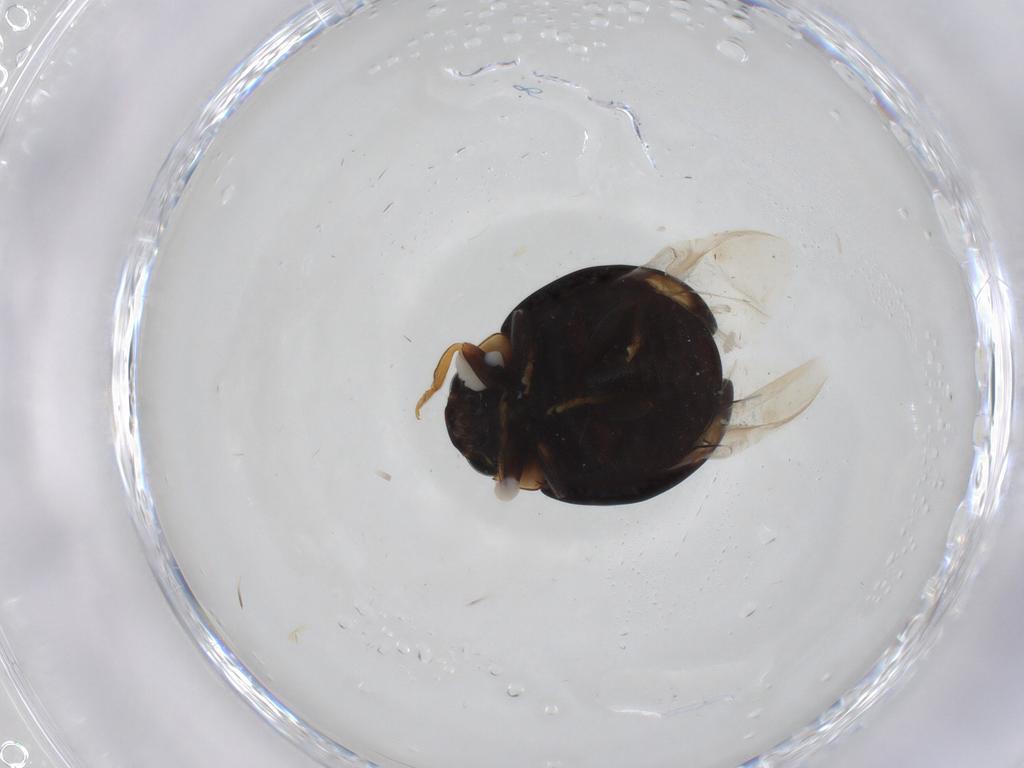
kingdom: Animalia
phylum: Arthropoda
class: Insecta
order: Coleoptera
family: Coccinellidae
